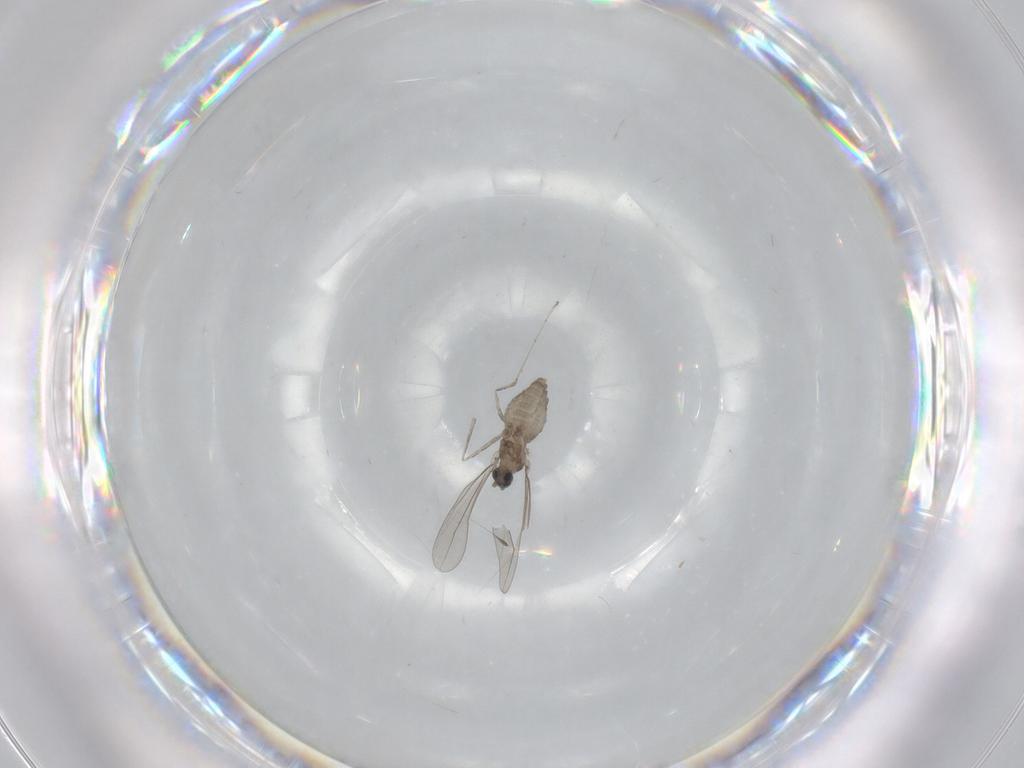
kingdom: Animalia
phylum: Arthropoda
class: Insecta
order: Diptera
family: Cecidomyiidae
